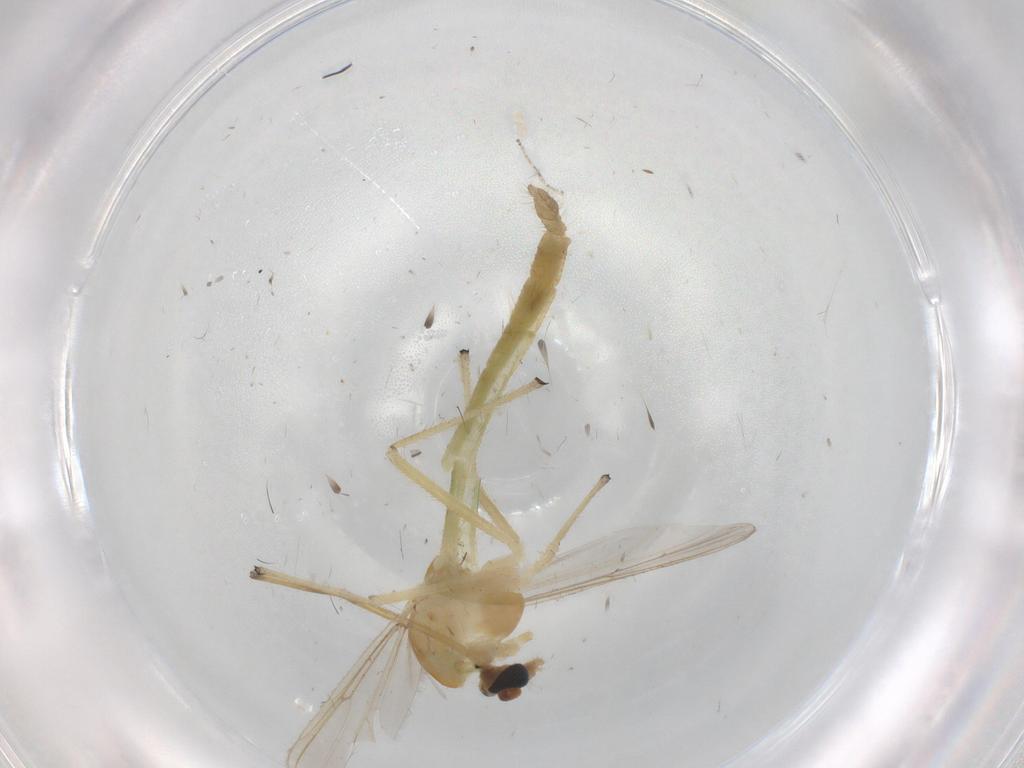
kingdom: Animalia
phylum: Arthropoda
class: Insecta
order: Diptera
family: Chironomidae
